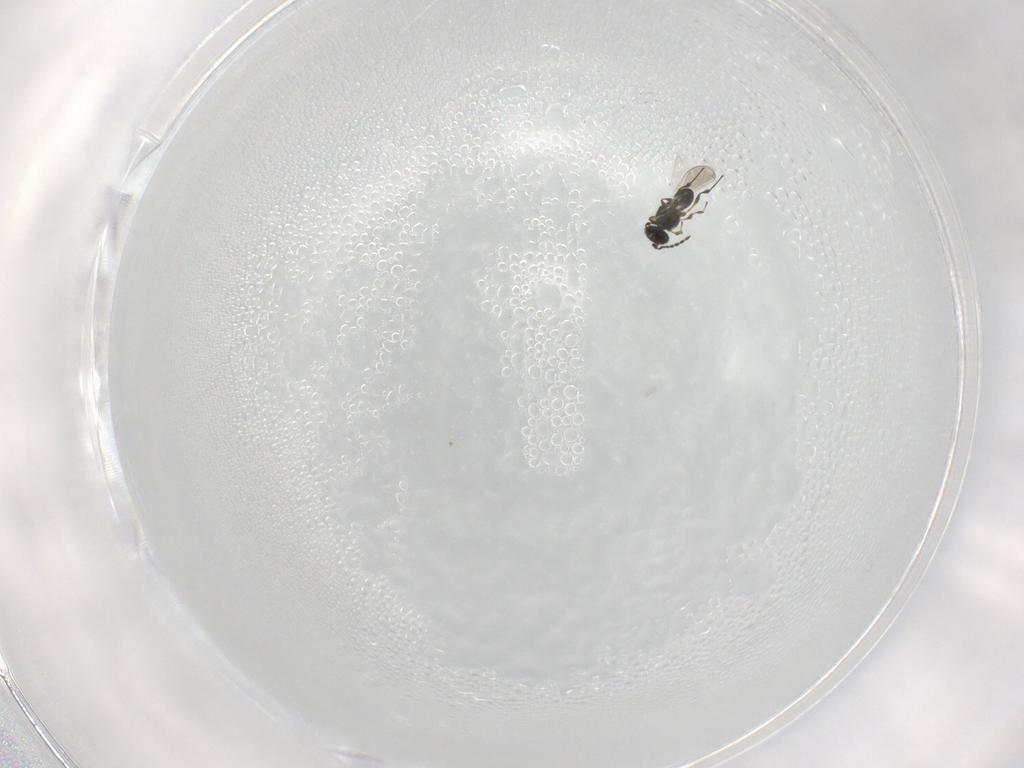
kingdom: Animalia
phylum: Arthropoda
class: Insecta
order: Hymenoptera
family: Platygastridae
